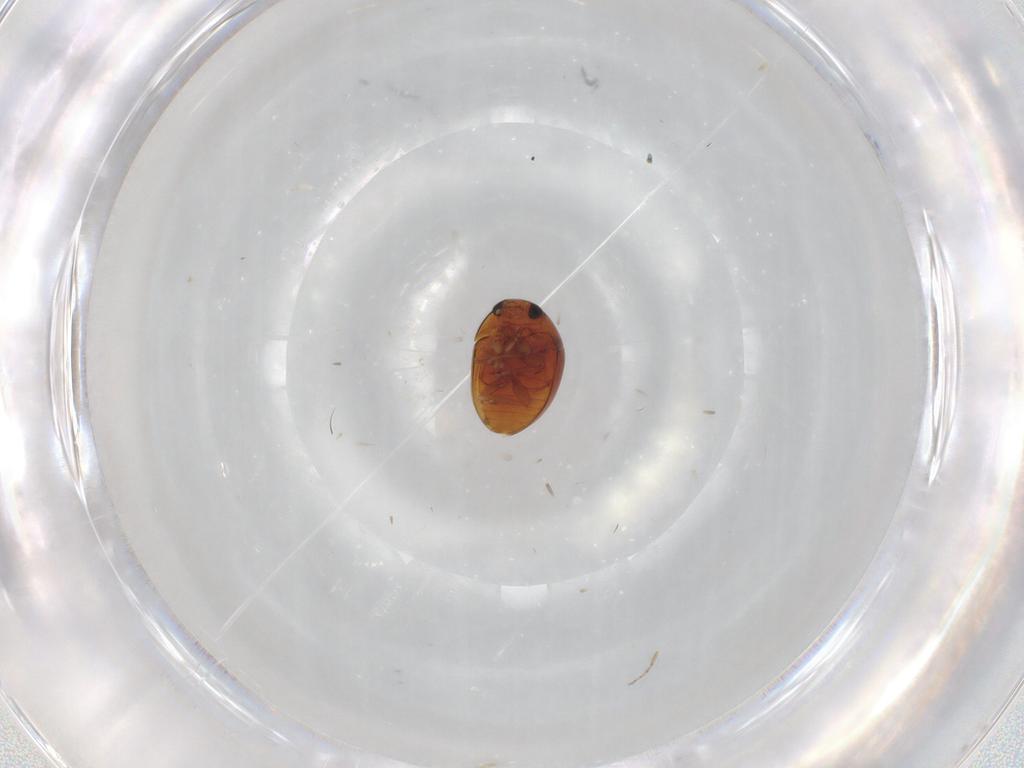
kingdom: Animalia
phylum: Arthropoda
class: Insecta
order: Coleoptera
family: Phalacridae
